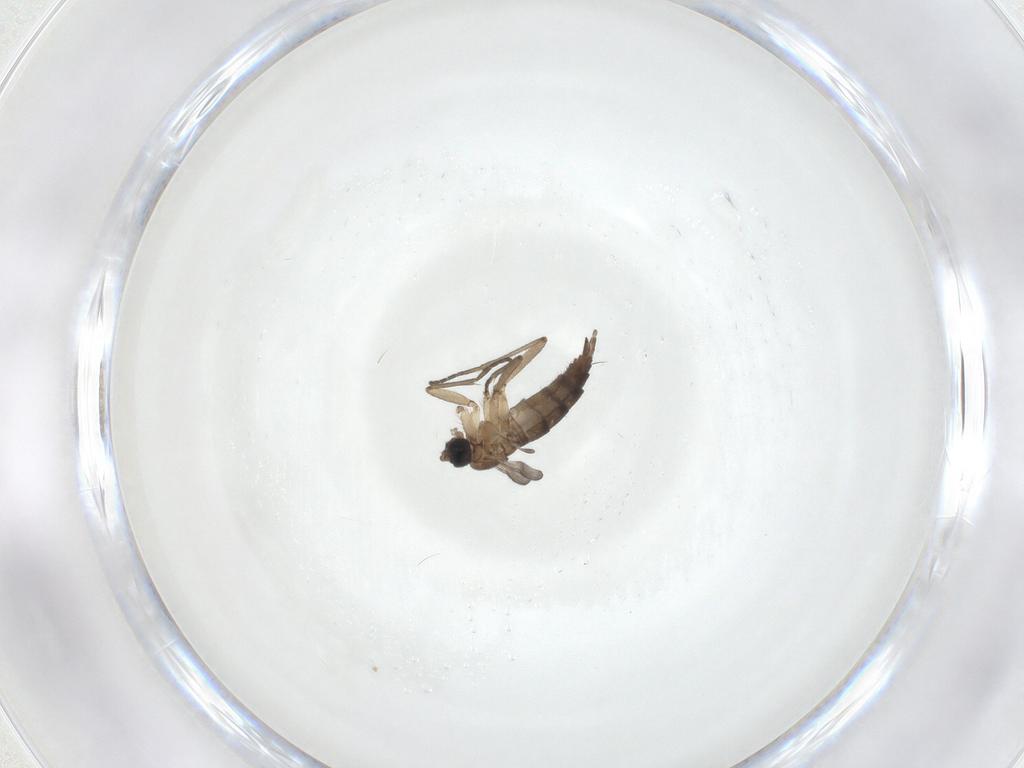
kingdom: Animalia
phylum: Arthropoda
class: Insecta
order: Diptera
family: Sciaridae
